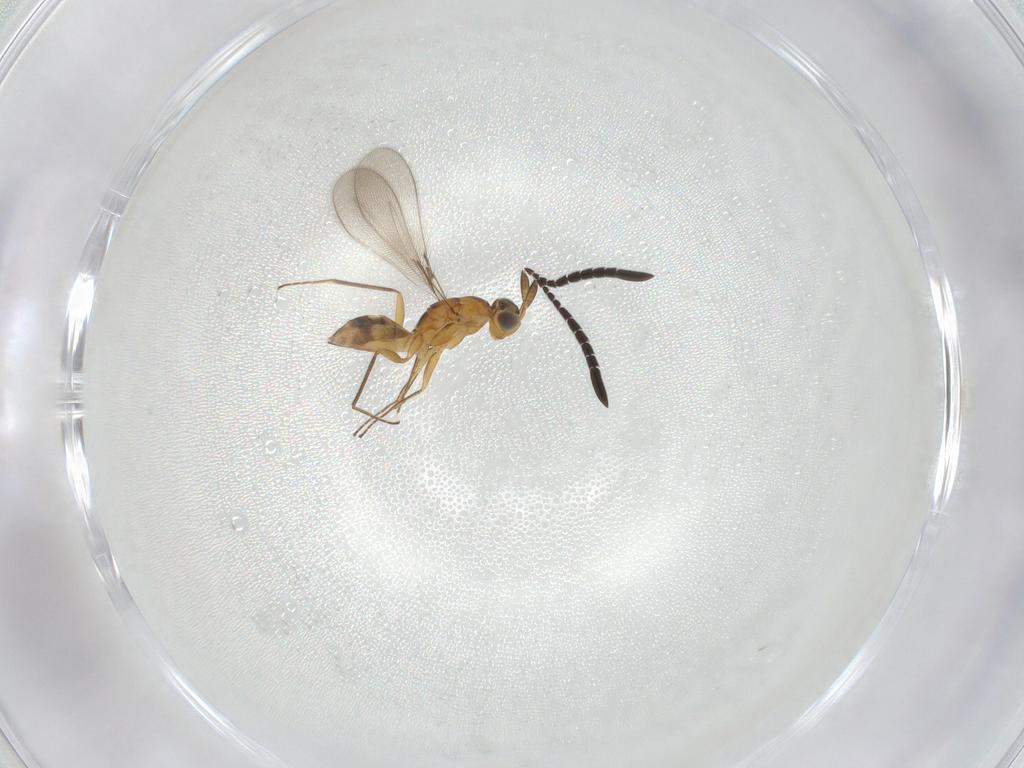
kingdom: Animalia
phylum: Arthropoda
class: Insecta
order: Hymenoptera
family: Mymaridae
